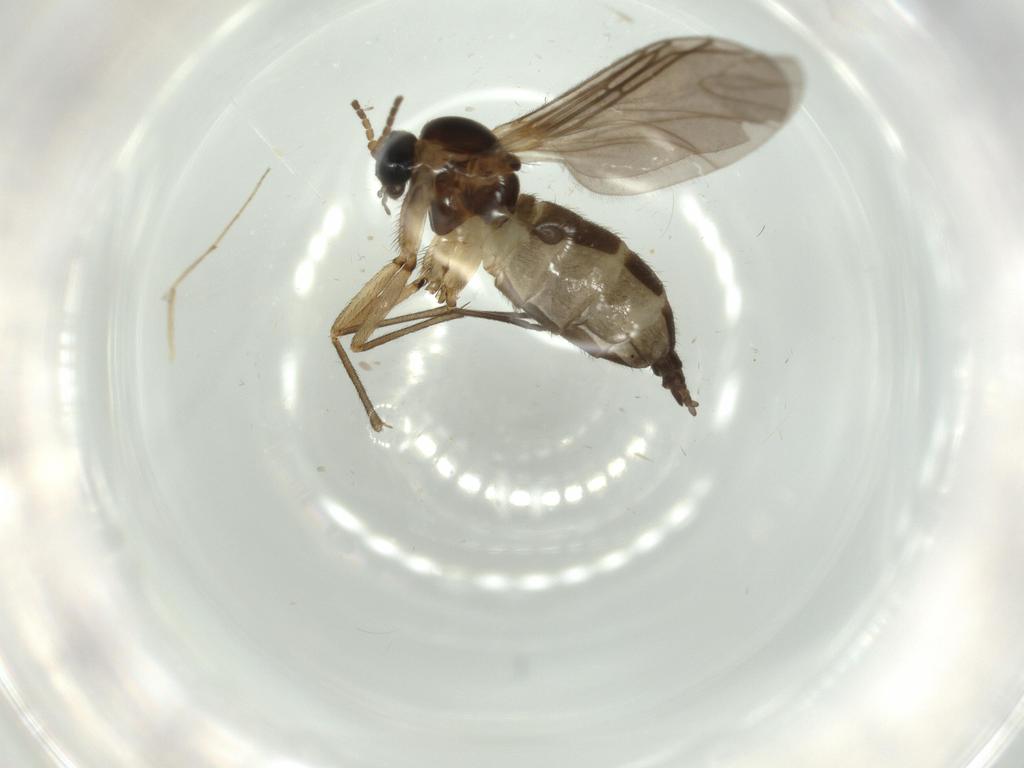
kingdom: Animalia
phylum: Arthropoda
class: Insecta
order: Diptera
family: Sciaridae
